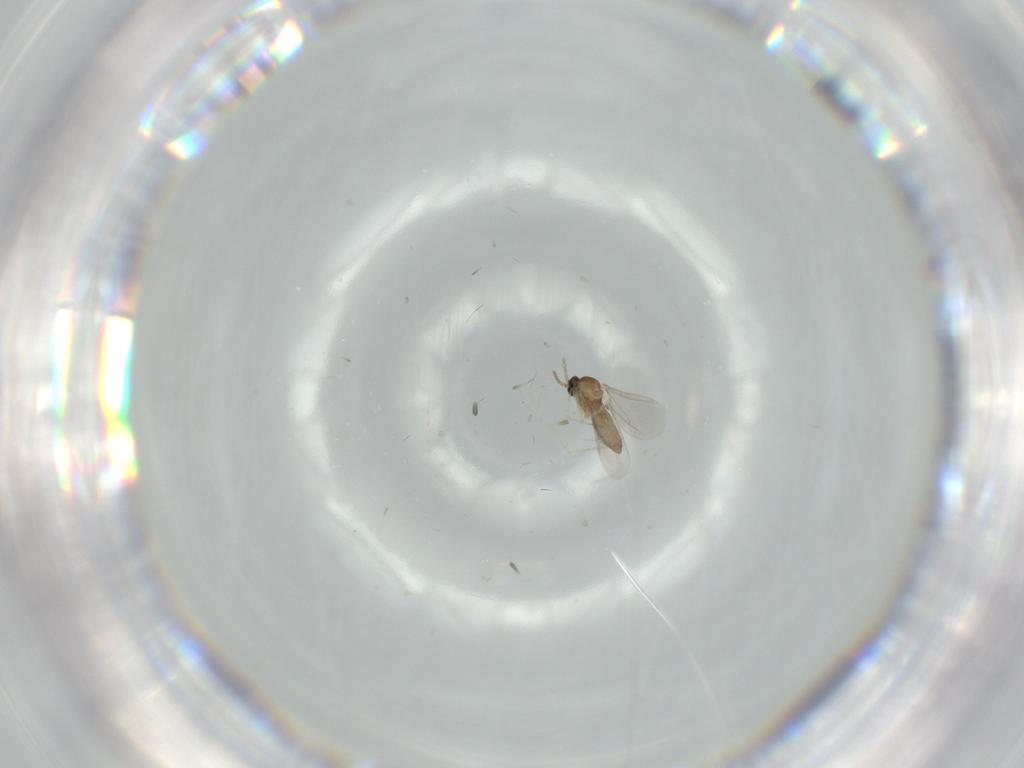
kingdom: Animalia
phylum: Arthropoda
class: Insecta
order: Diptera
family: Cecidomyiidae
